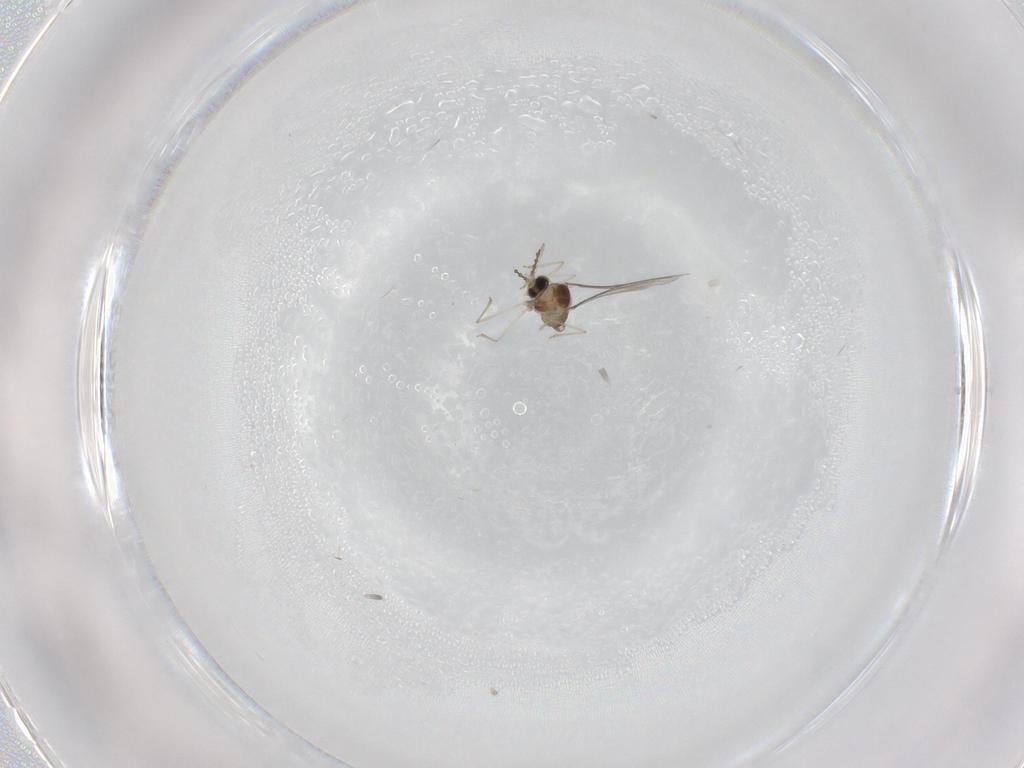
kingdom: Animalia
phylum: Arthropoda
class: Insecta
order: Diptera
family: Cecidomyiidae
